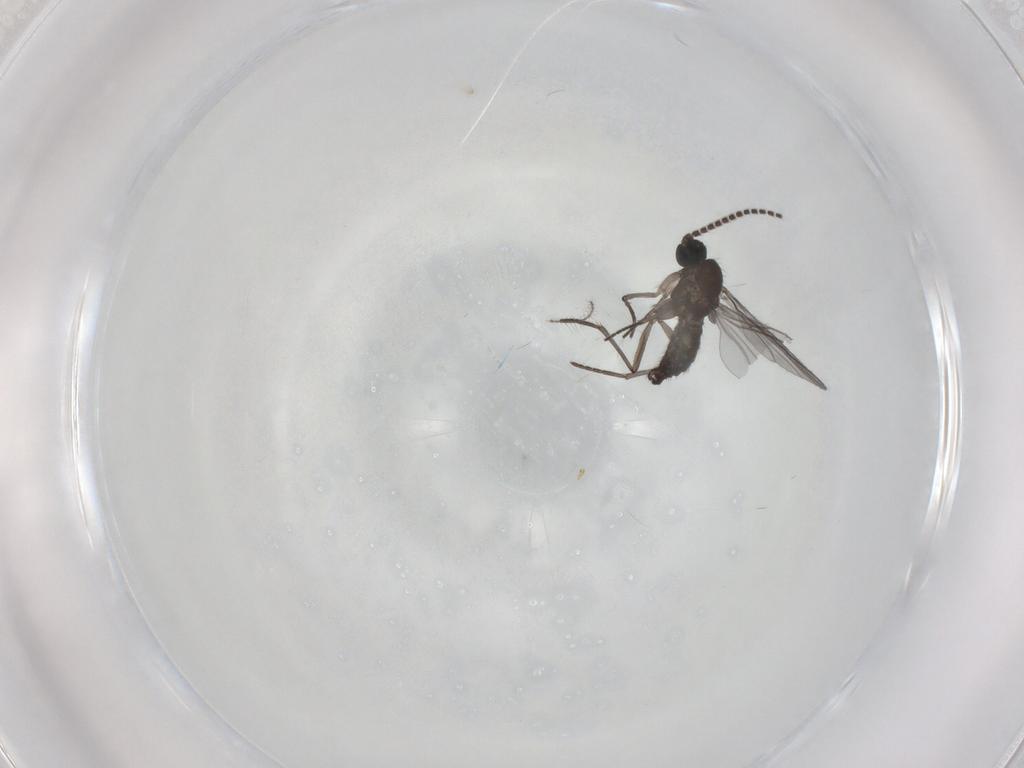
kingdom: Animalia
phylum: Arthropoda
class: Insecta
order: Diptera
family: Cecidomyiidae
